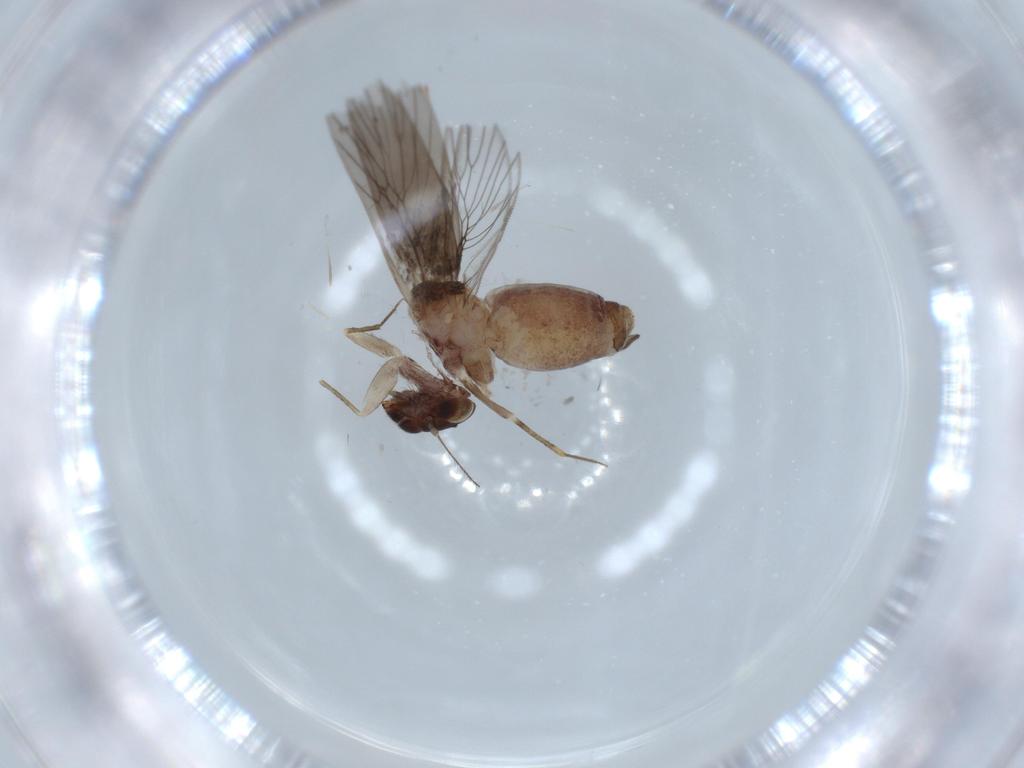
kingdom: Animalia
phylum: Arthropoda
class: Insecta
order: Psocodea
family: Lepidopsocidae
